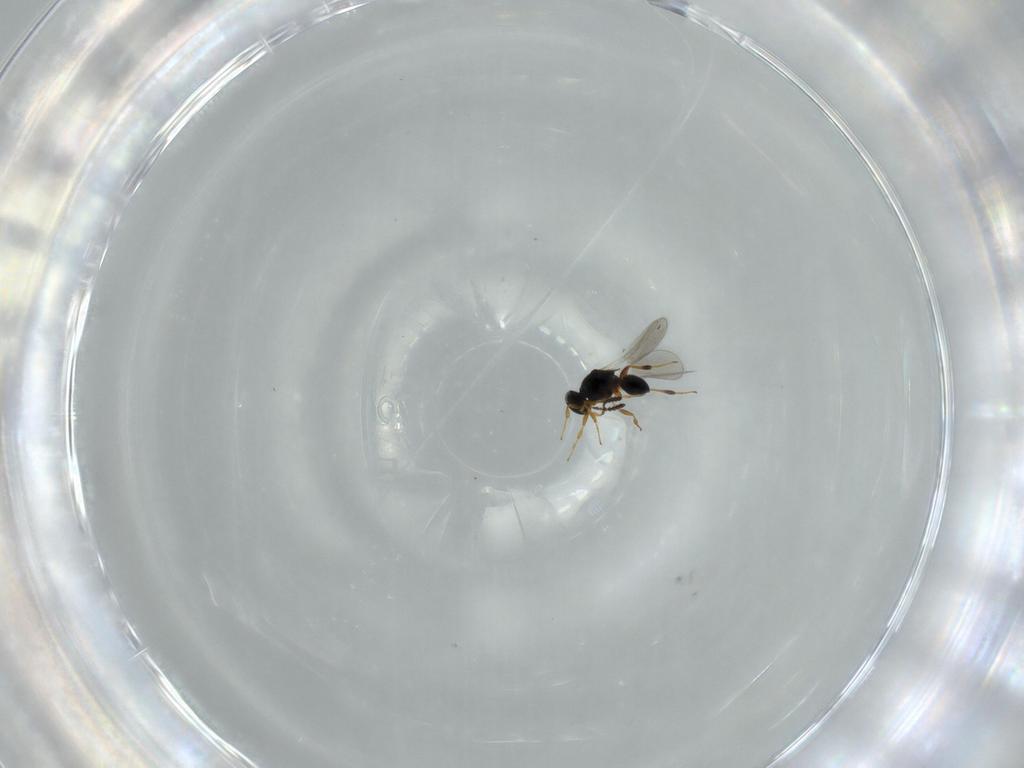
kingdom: Animalia
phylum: Arthropoda
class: Insecta
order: Hymenoptera
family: Platygastridae
